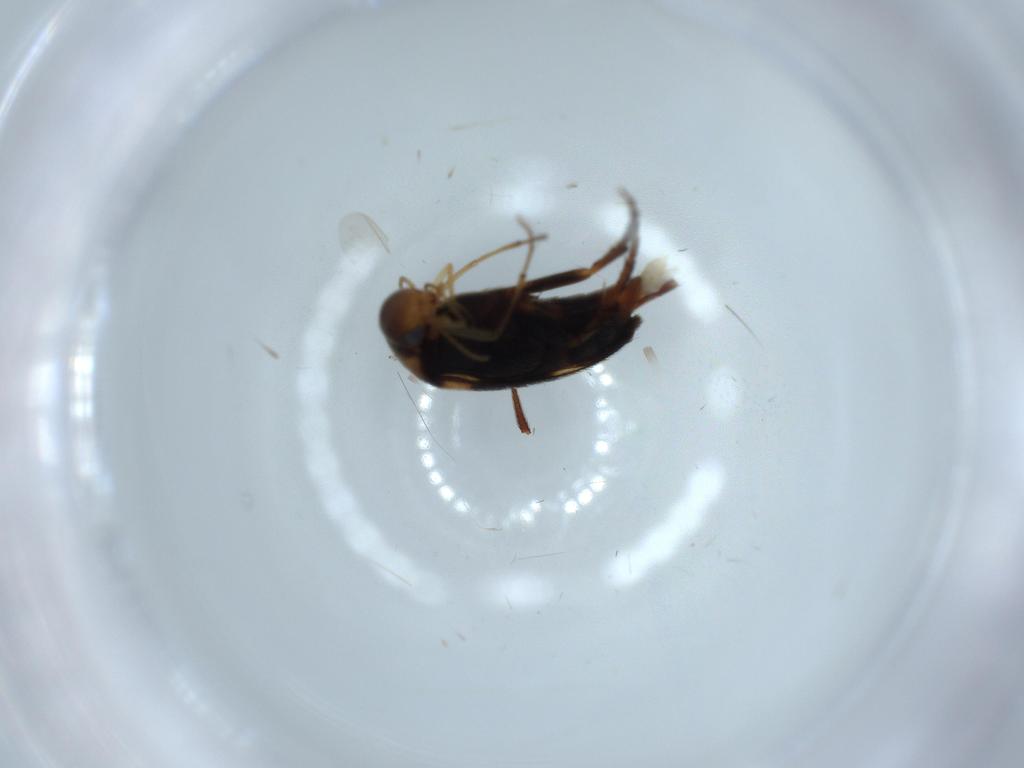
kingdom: Animalia
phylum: Arthropoda
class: Insecta
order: Coleoptera
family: Mordellidae
